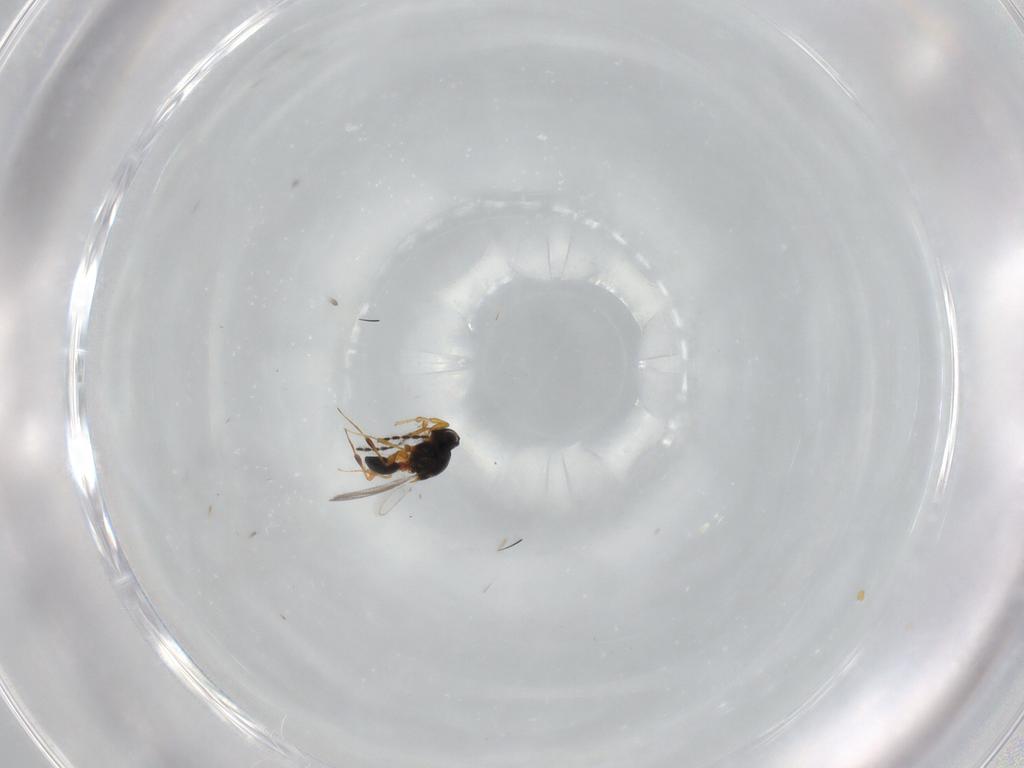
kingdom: Animalia
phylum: Arthropoda
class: Insecta
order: Hymenoptera
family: Platygastridae
